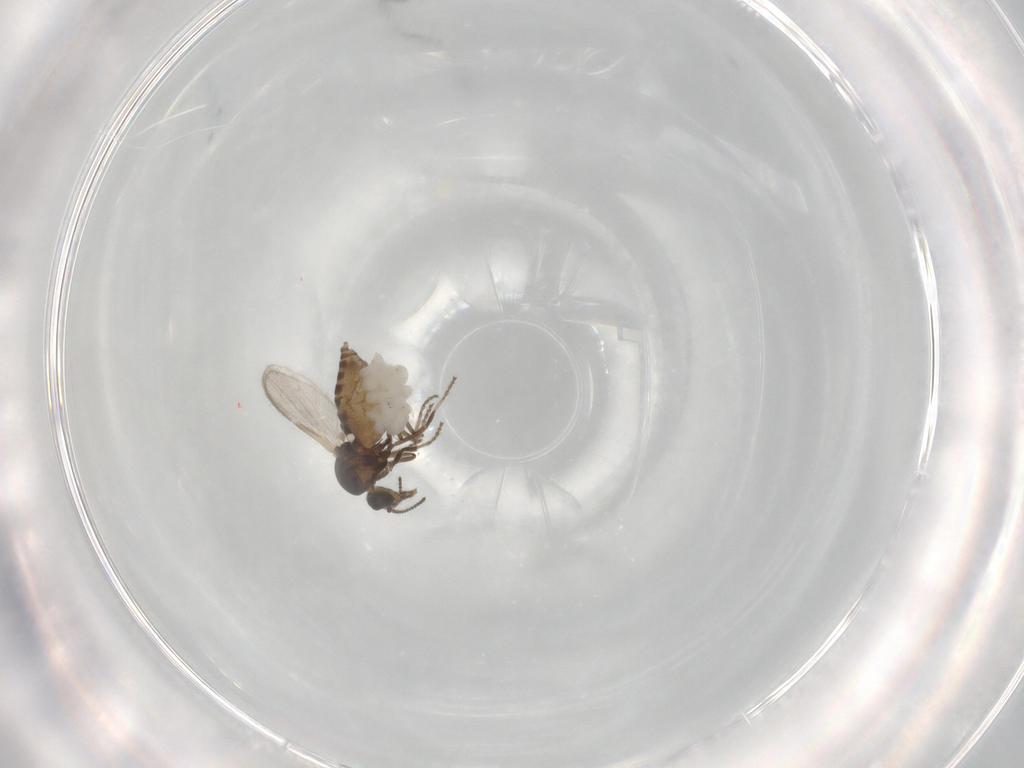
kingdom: Animalia
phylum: Arthropoda
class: Insecta
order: Diptera
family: Ceratopogonidae
